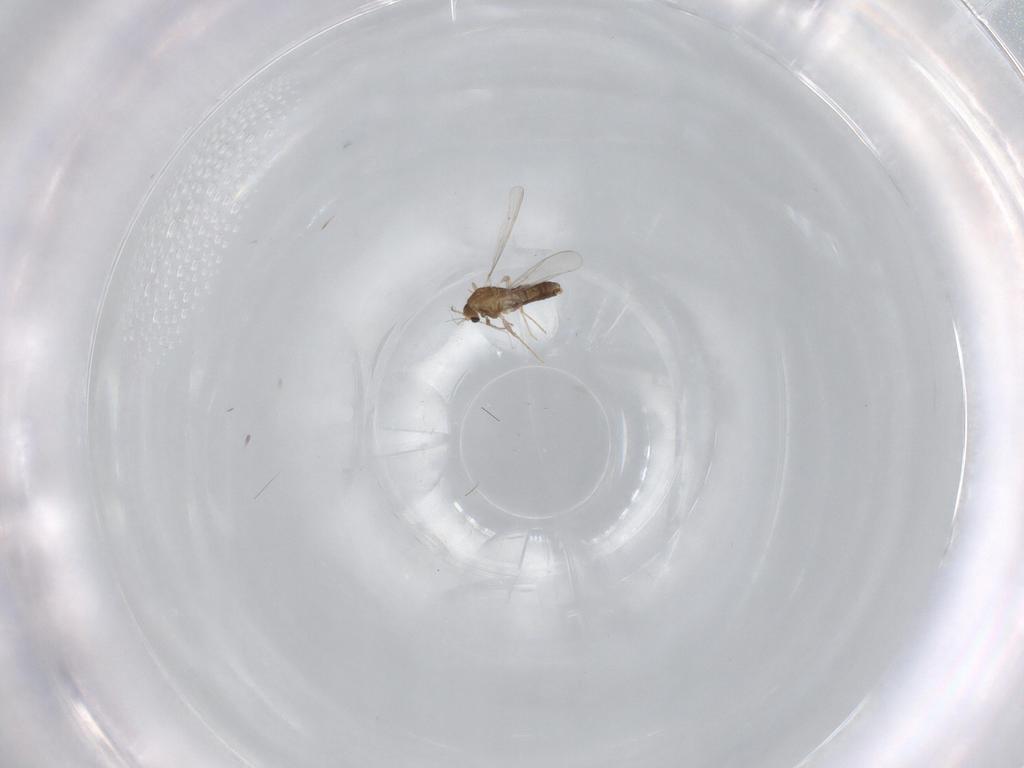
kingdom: Animalia
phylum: Arthropoda
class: Insecta
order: Diptera
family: Chironomidae
